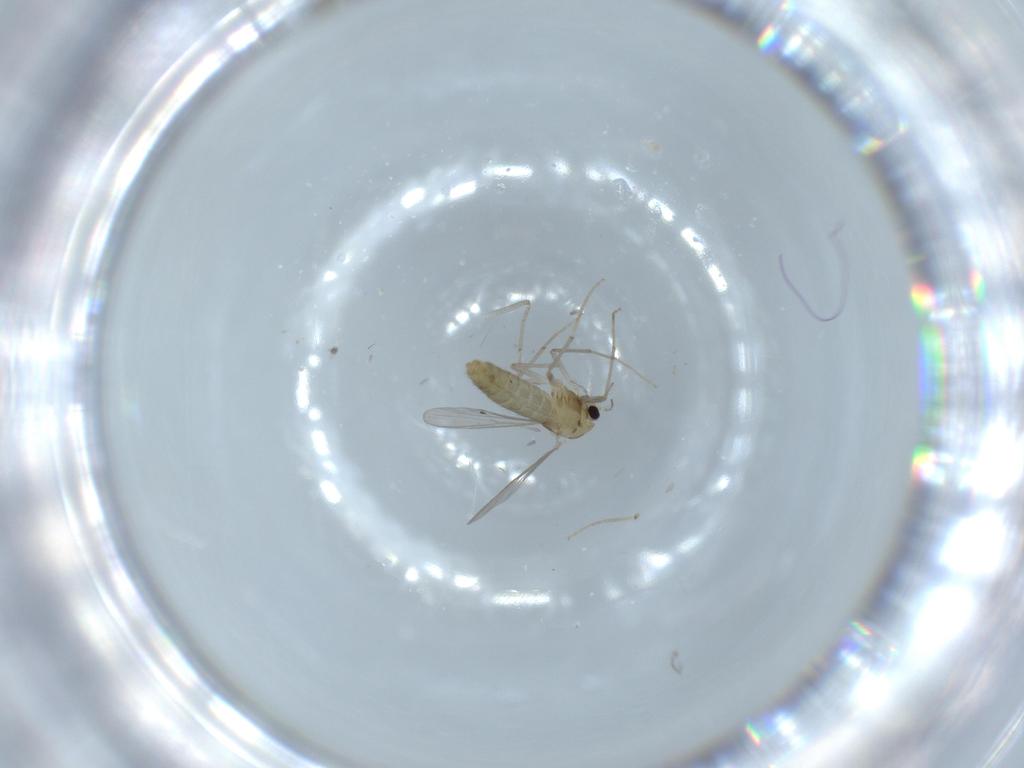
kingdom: Animalia
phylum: Arthropoda
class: Insecta
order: Diptera
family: Chironomidae
